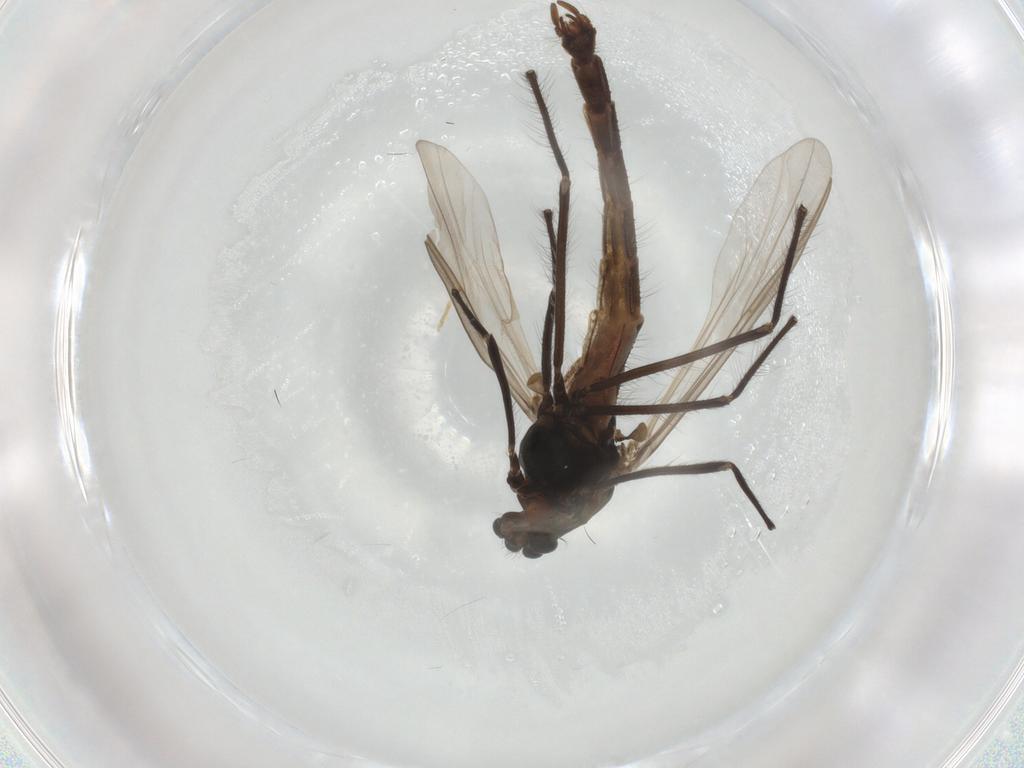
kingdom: Animalia
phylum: Arthropoda
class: Insecta
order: Diptera
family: Chironomidae
